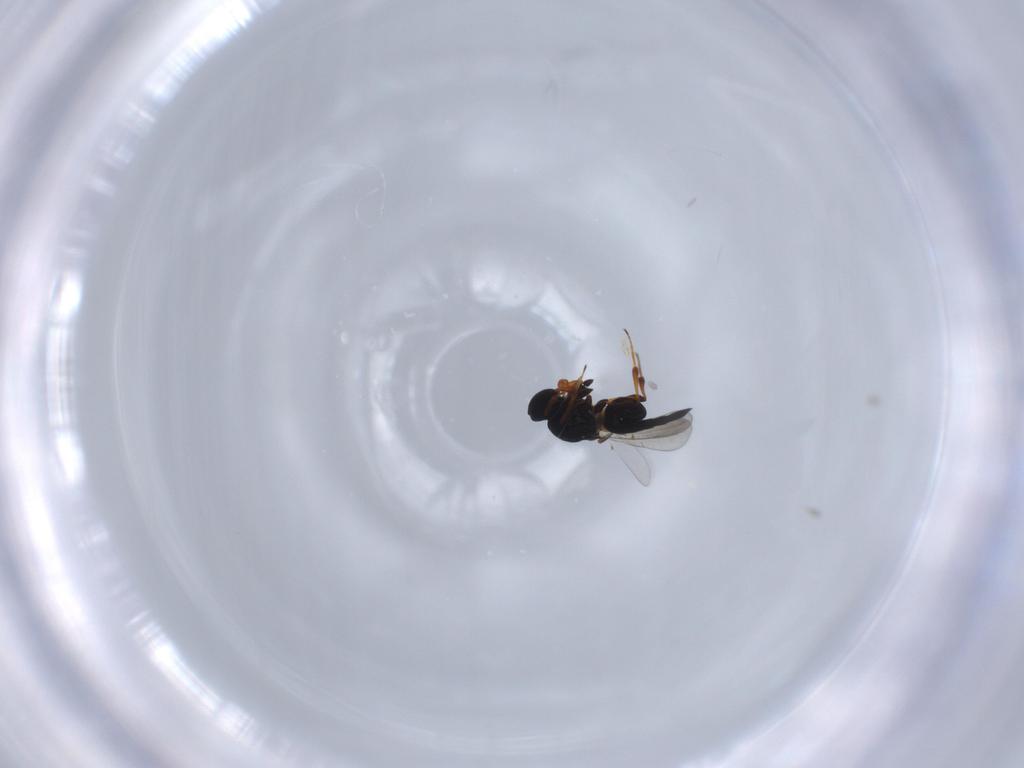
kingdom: Animalia
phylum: Arthropoda
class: Insecta
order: Hymenoptera
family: Platygastridae
